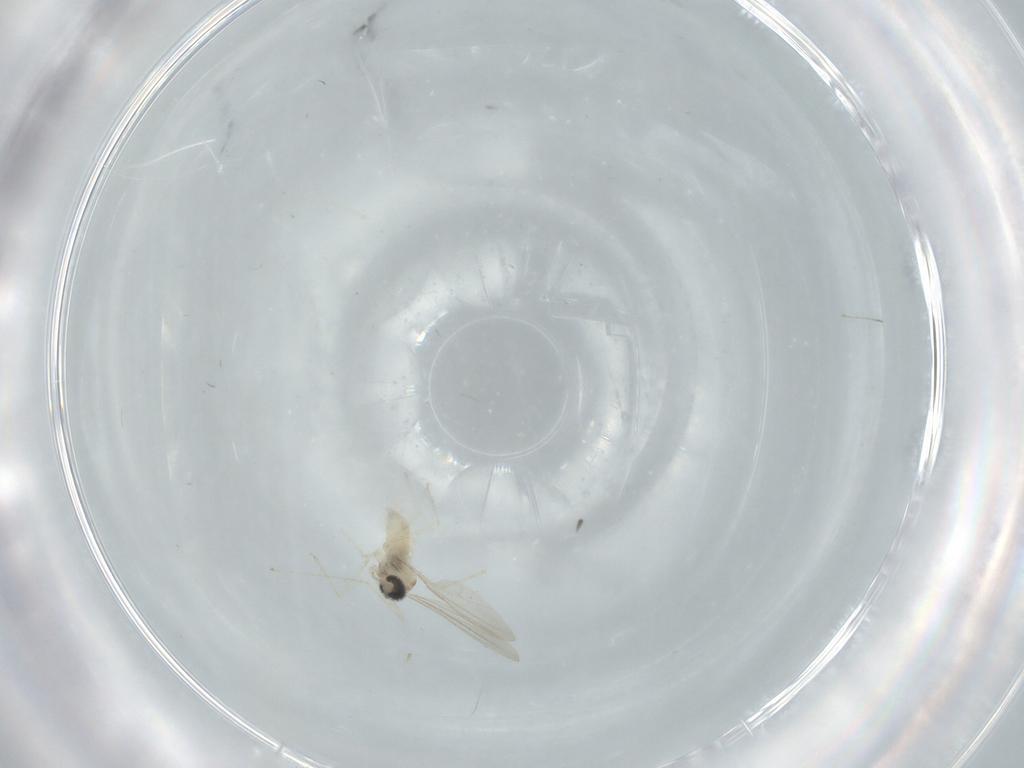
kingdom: Animalia
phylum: Arthropoda
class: Insecta
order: Diptera
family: Cecidomyiidae
